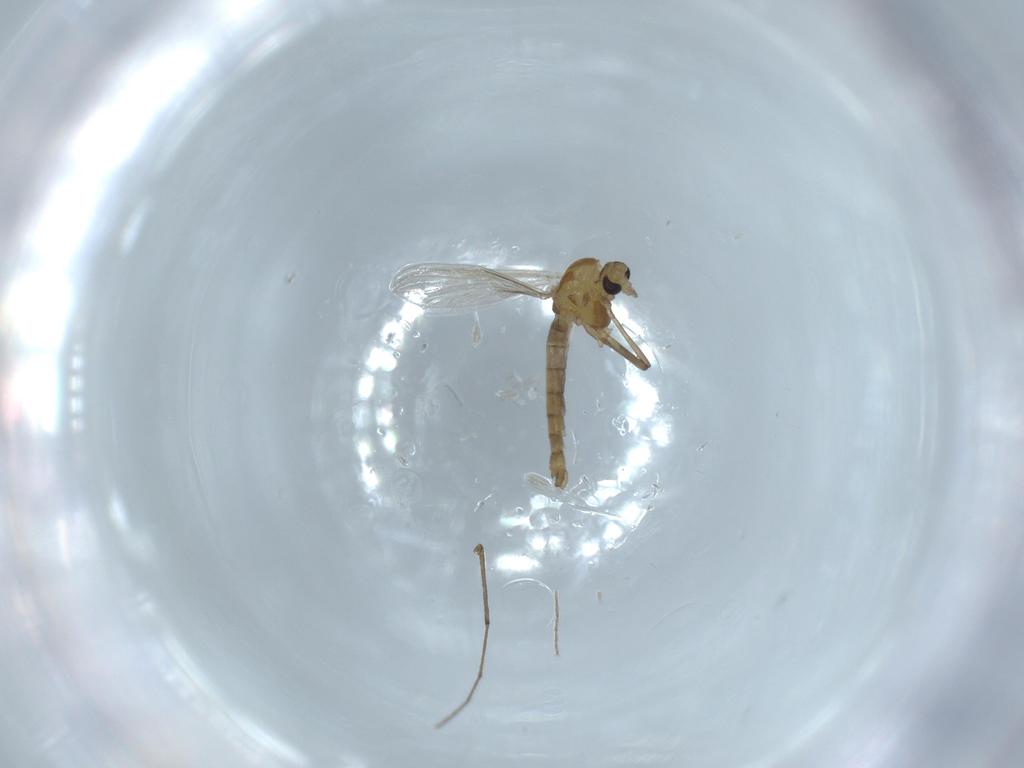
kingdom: Animalia
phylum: Arthropoda
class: Insecta
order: Diptera
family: Chironomidae
